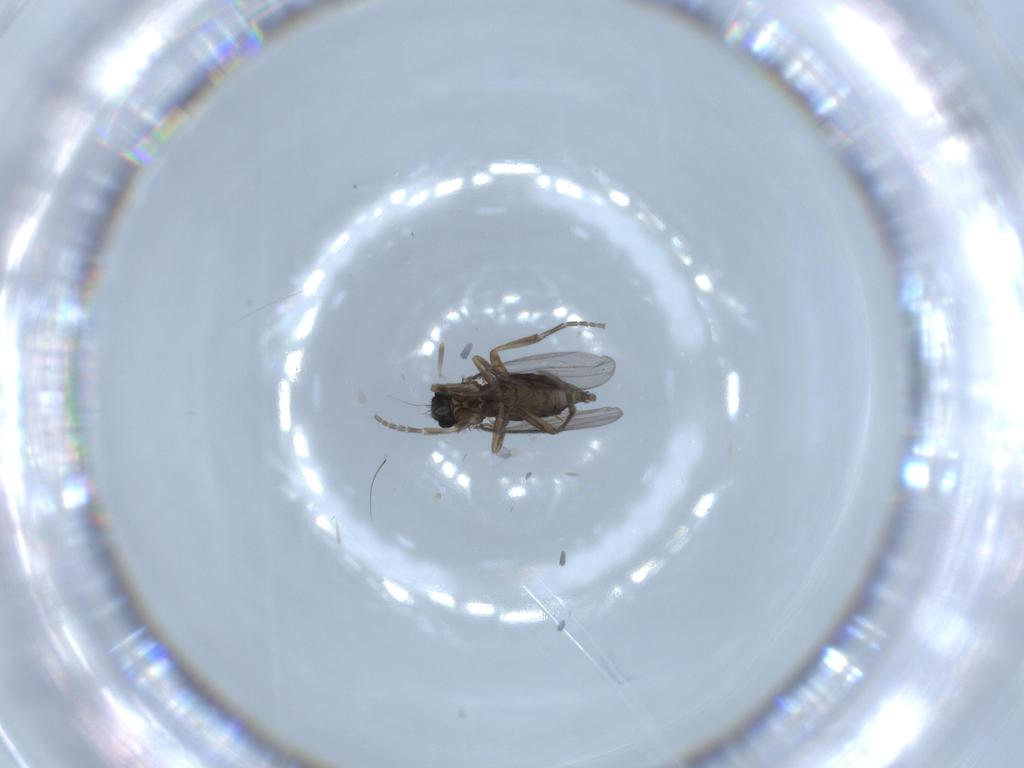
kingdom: Animalia
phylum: Arthropoda
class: Insecta
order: Diptera
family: Phoridae
